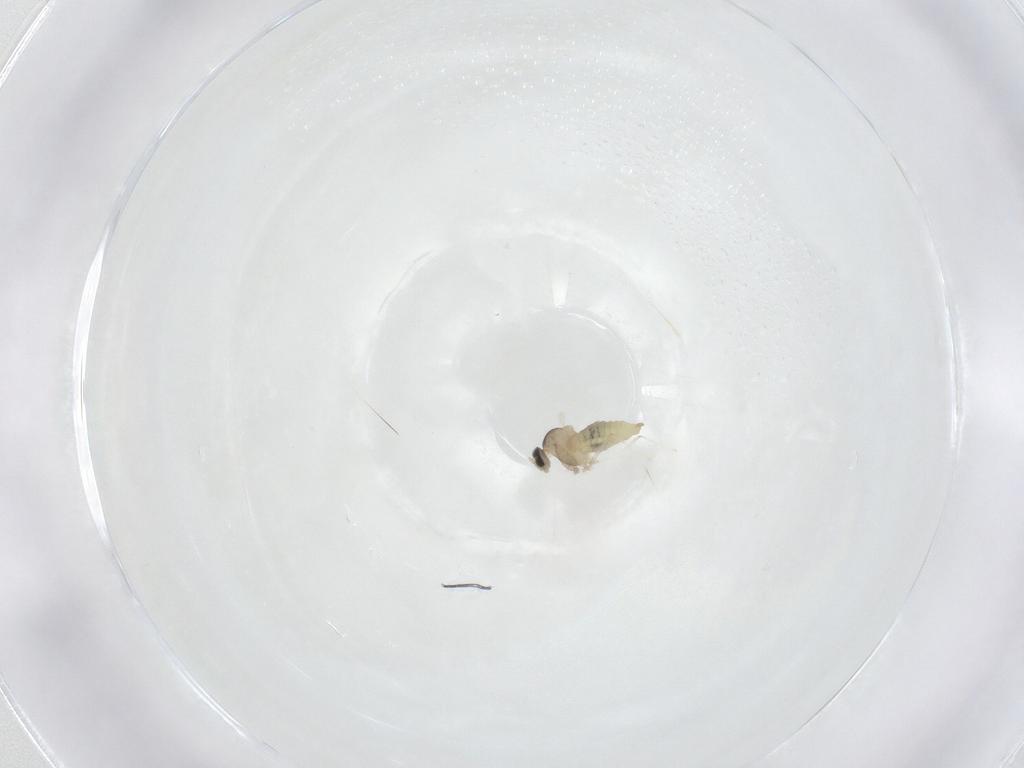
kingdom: Animalia
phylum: Arthropoda
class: Insecta
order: Diptera
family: Cecidomyiidae
